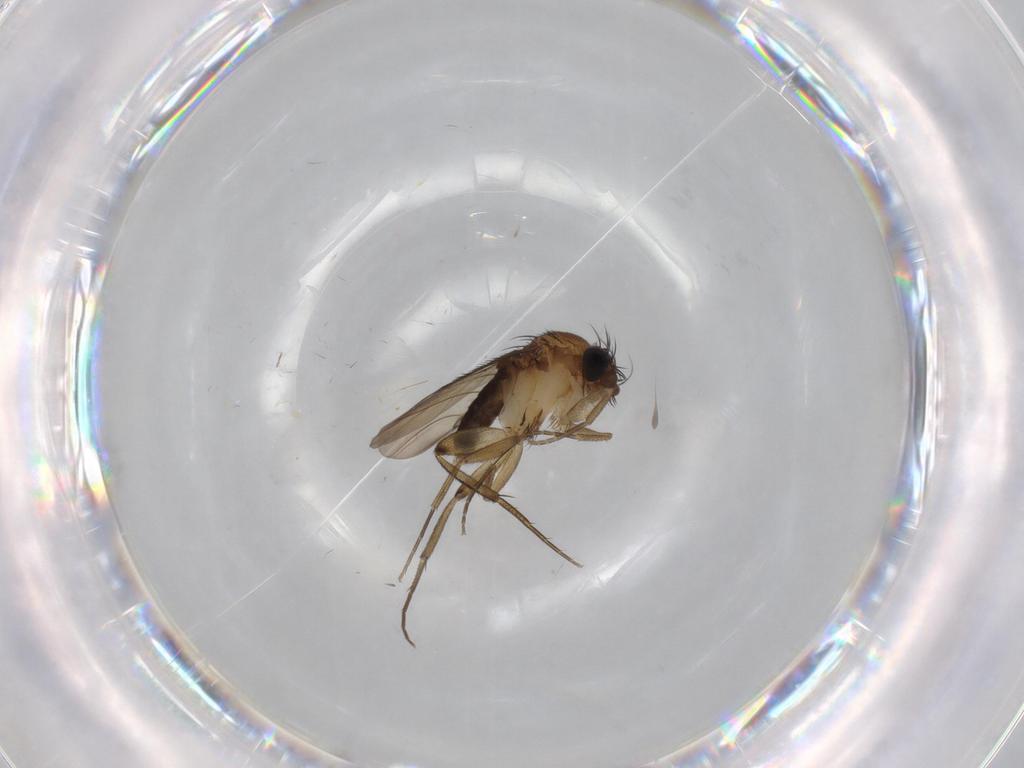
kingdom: Animalia
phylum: Arthropoda
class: Insecta
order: Diptera
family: Phoridae
